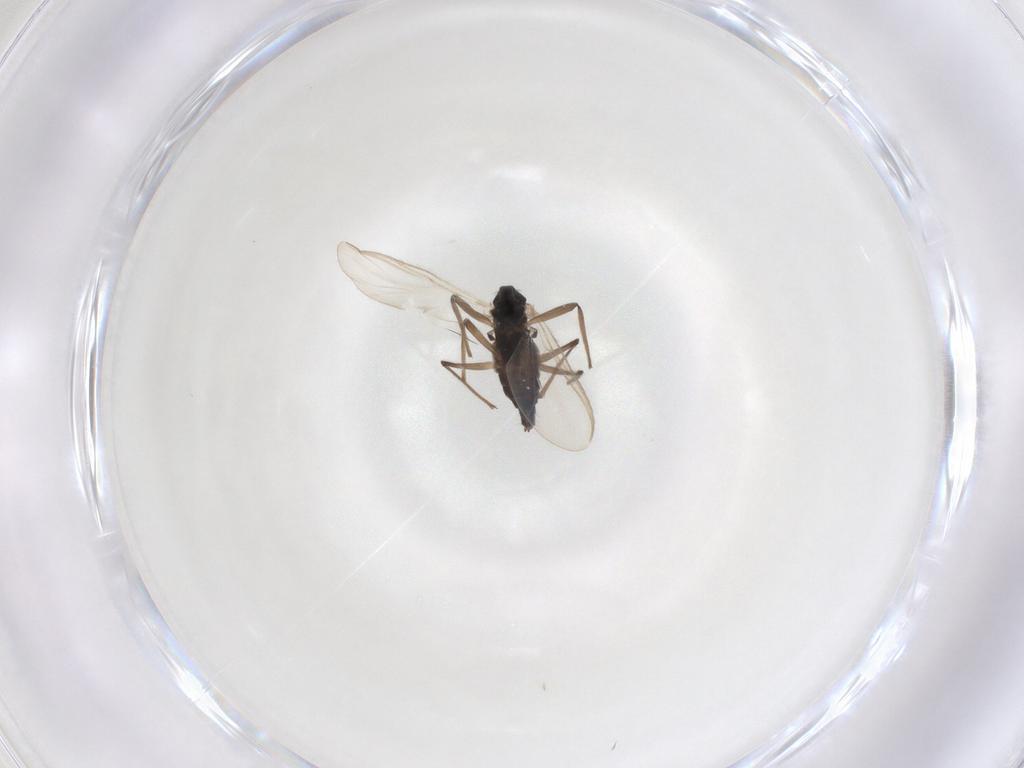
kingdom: Animalia
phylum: Arthropoda
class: Insecta
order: Diptera
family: Chironomidae
